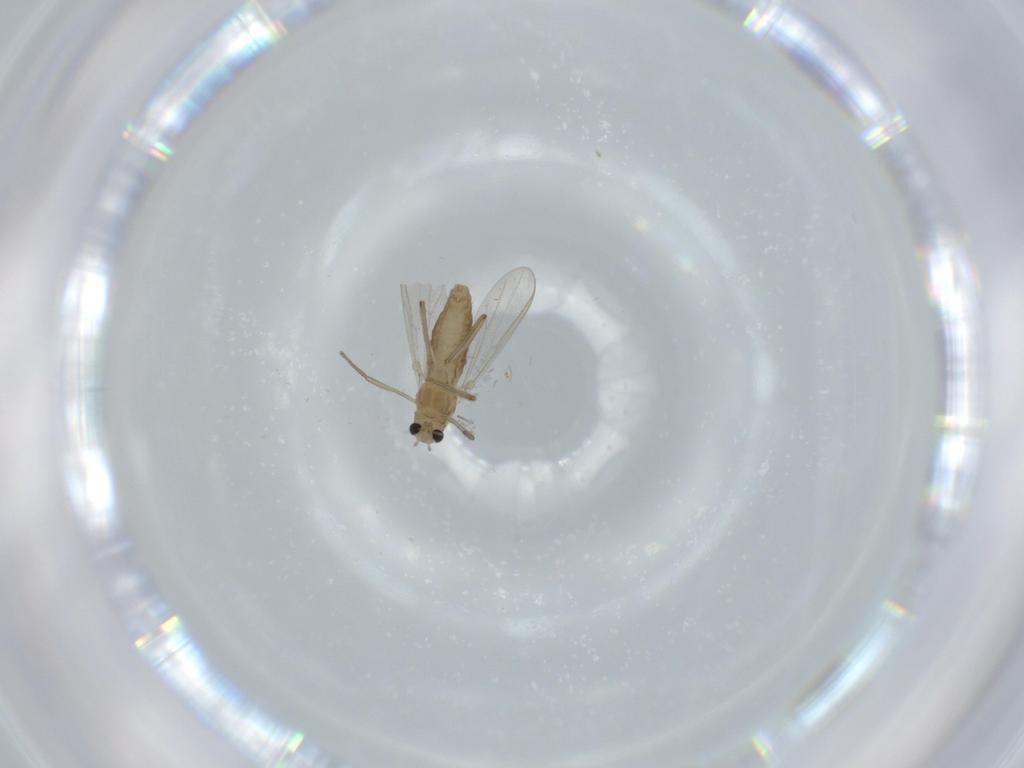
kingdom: Animalia
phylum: Arthropoda
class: Insecta
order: Diptera
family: Chironomidae
